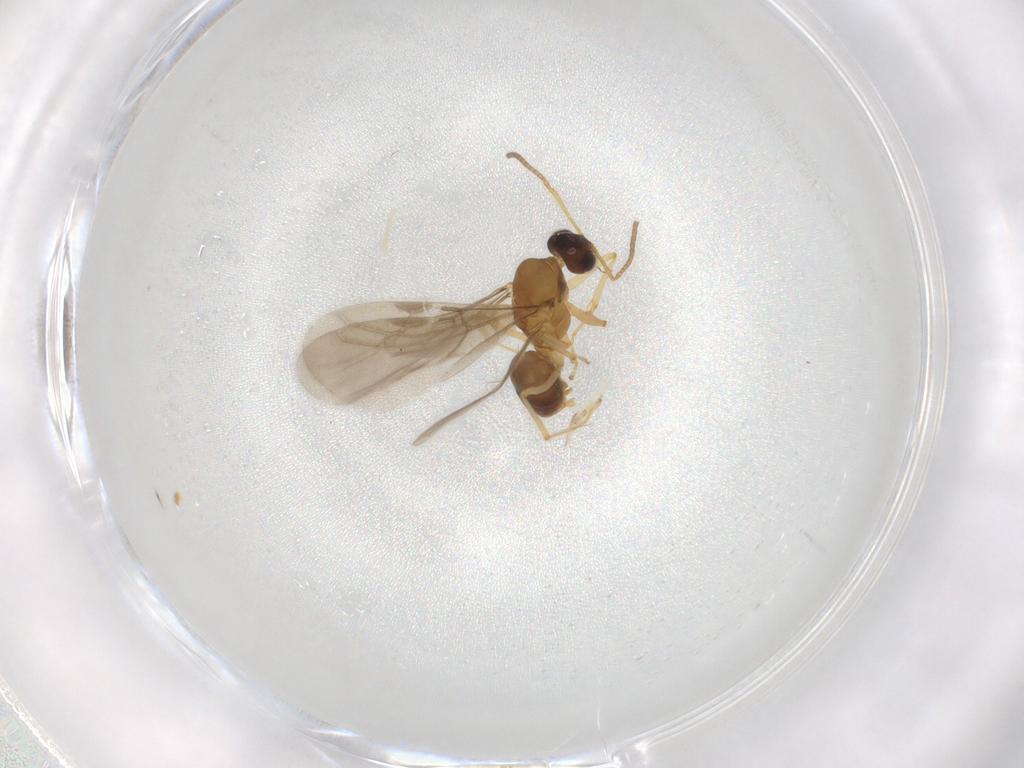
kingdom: Animalia
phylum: Arthropoda
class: Insecta
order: Hymenoptera
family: Formicidae
